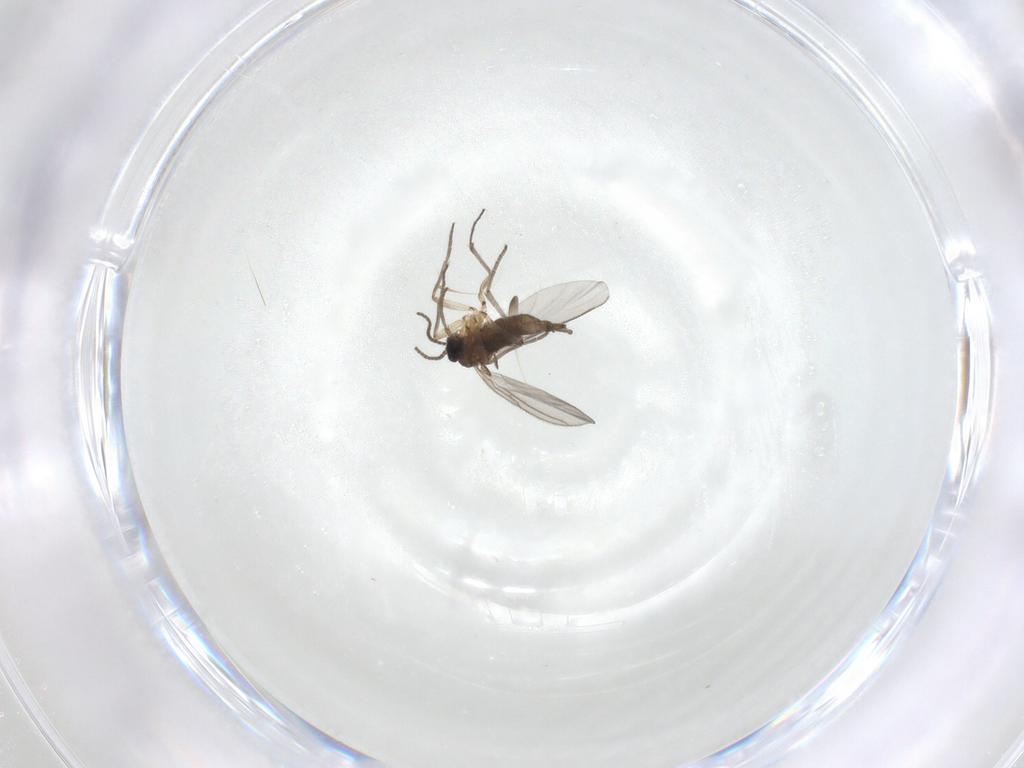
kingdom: Animalia
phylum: Arthropoda
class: Insecta
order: Diptera
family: Sciaridae
